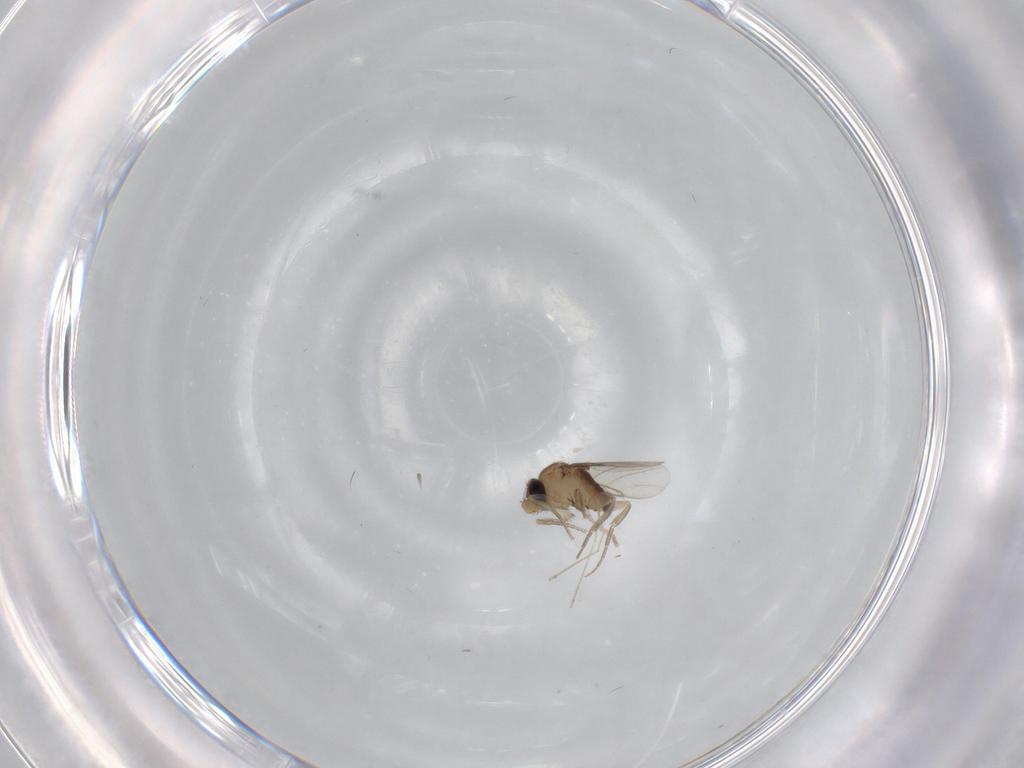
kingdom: Animalia
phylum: Arthropoda
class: Insecta
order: Diptera
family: Cecidomyiidae
